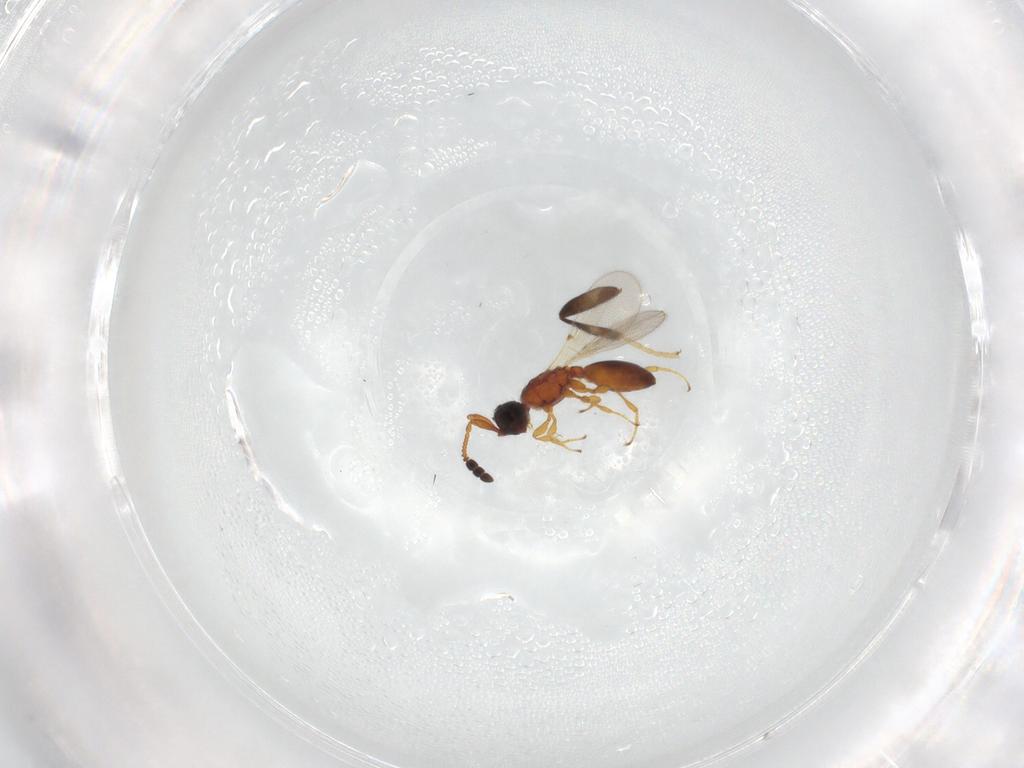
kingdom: Animalia
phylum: Arthropoda
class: Insecta
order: Hymenoptera
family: Diapriidae
